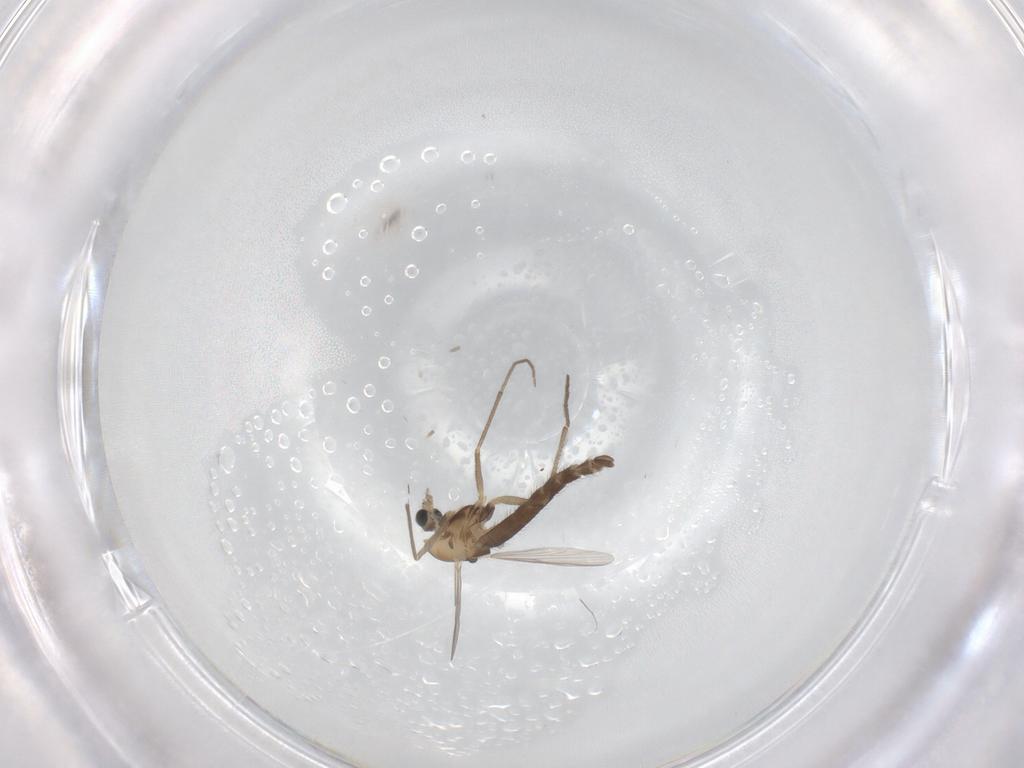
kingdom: Animalia
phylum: Arthropoda
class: Insecta
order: Diptera
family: Chironomidae
